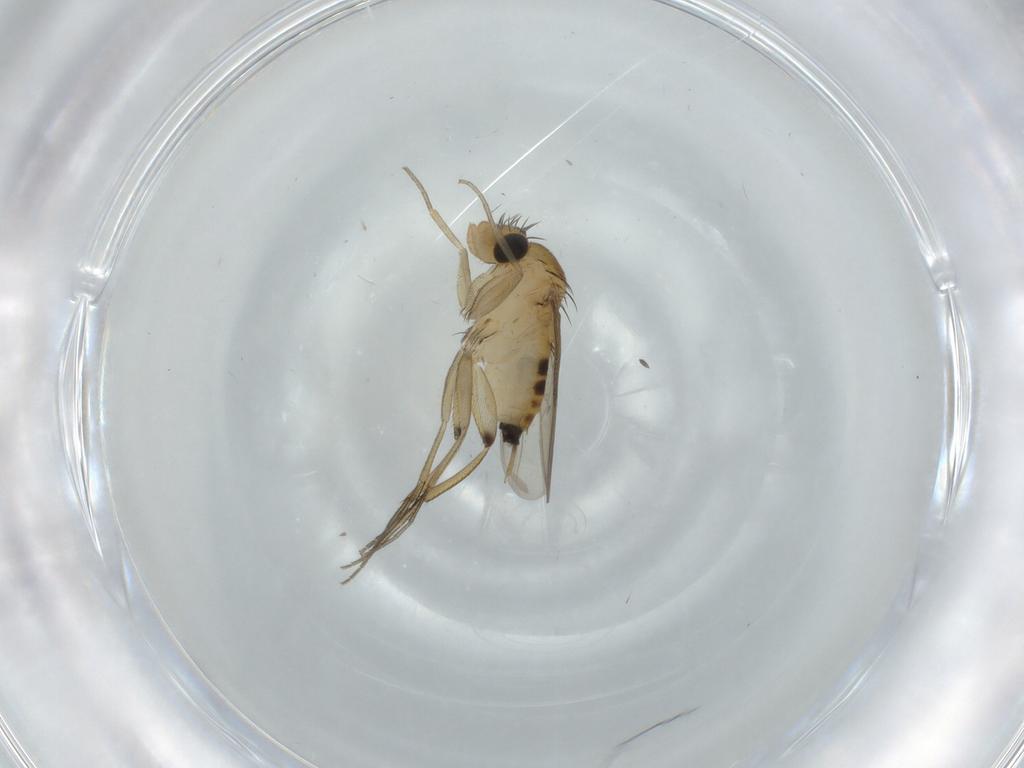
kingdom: Animalia
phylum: Arthropoda
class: Insecta
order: Diptera
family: Phoridae
